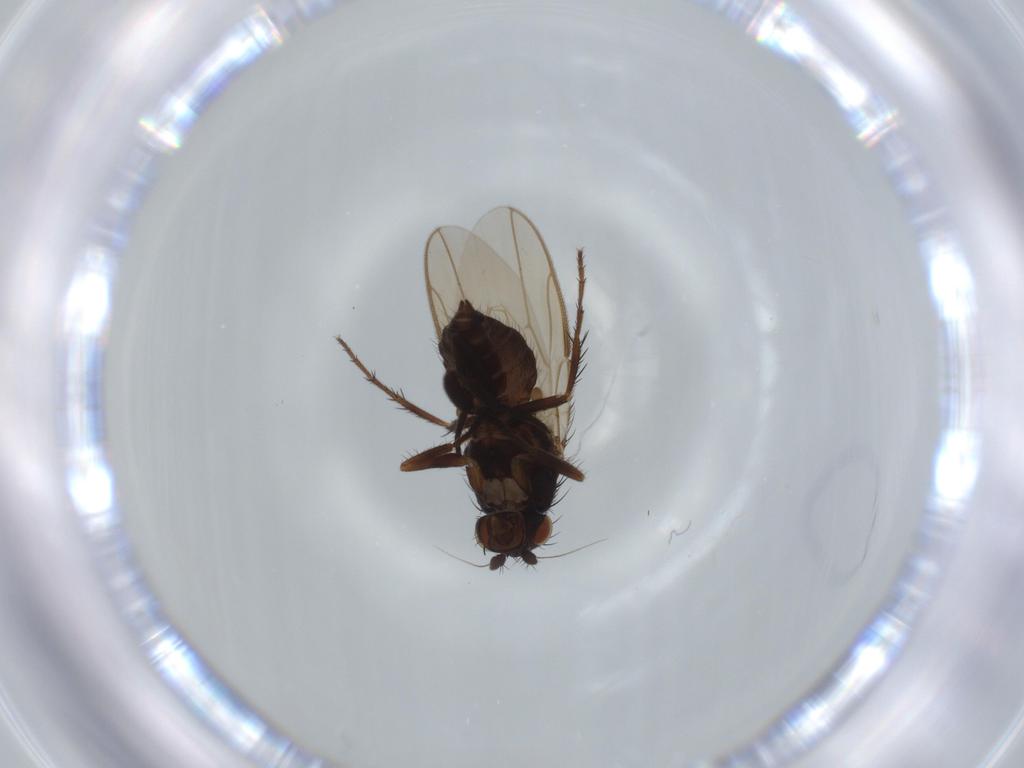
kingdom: Animalia
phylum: Arthropoda
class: Insecta
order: Diptera
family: Sphaeroceridae
